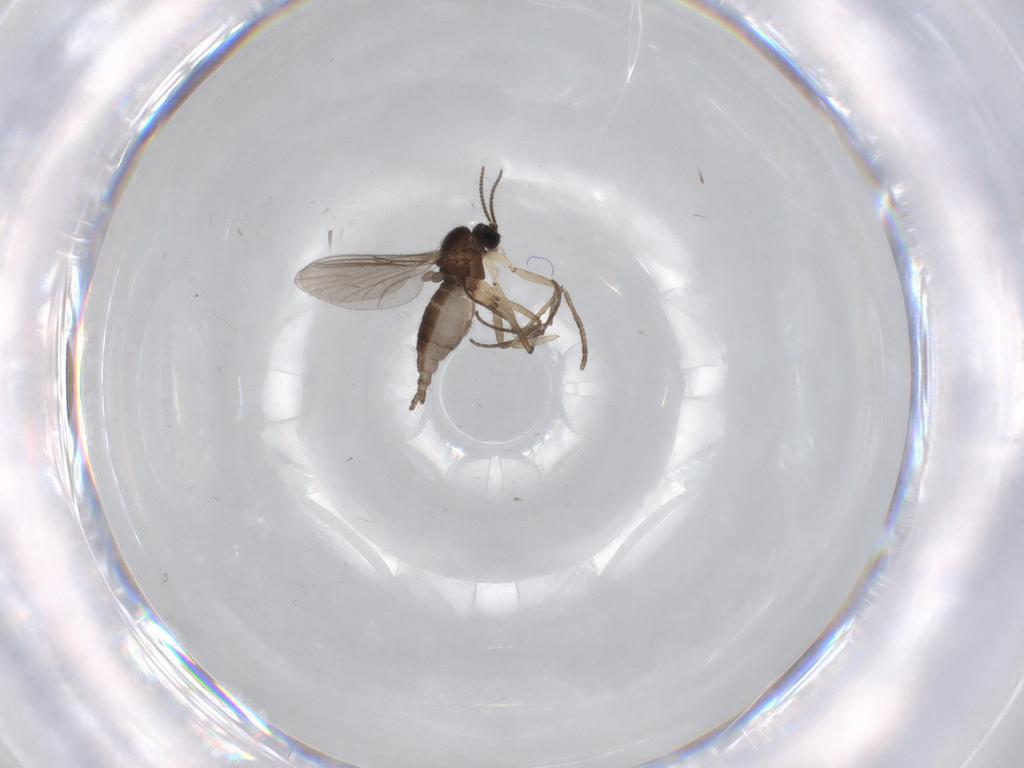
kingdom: Animalia
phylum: Arthropoda
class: Insecta
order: Diptera
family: Sciaridae
